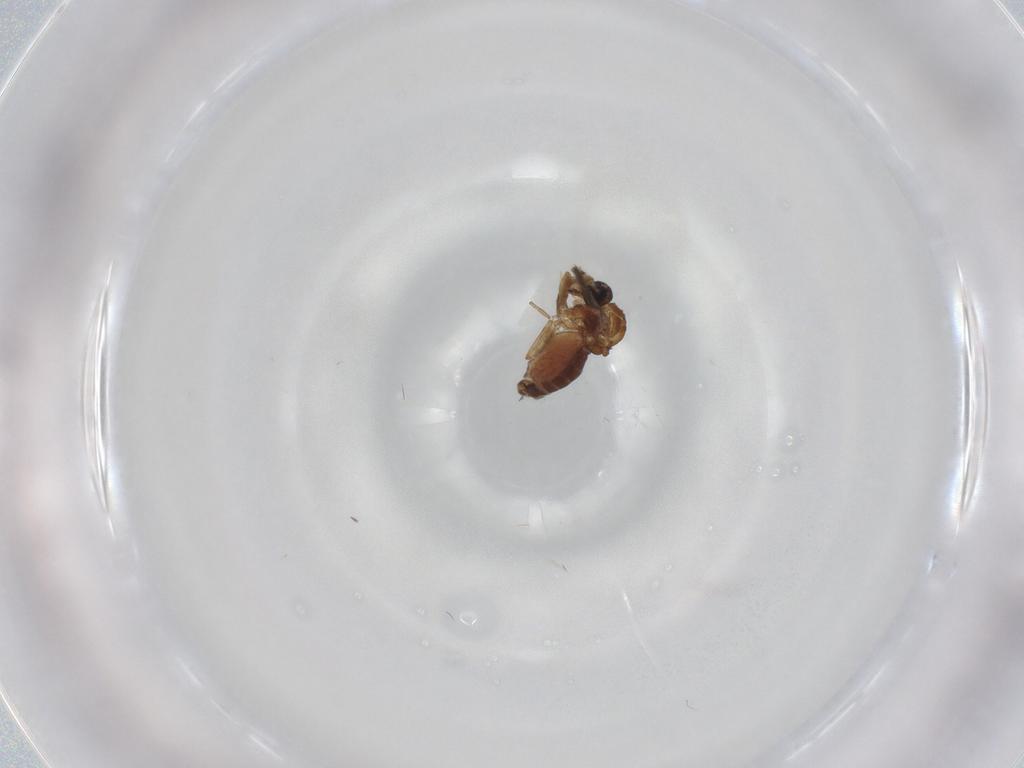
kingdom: Animalia
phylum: Arthropoda
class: Insecta
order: Diptera
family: Ceratopogonidae
